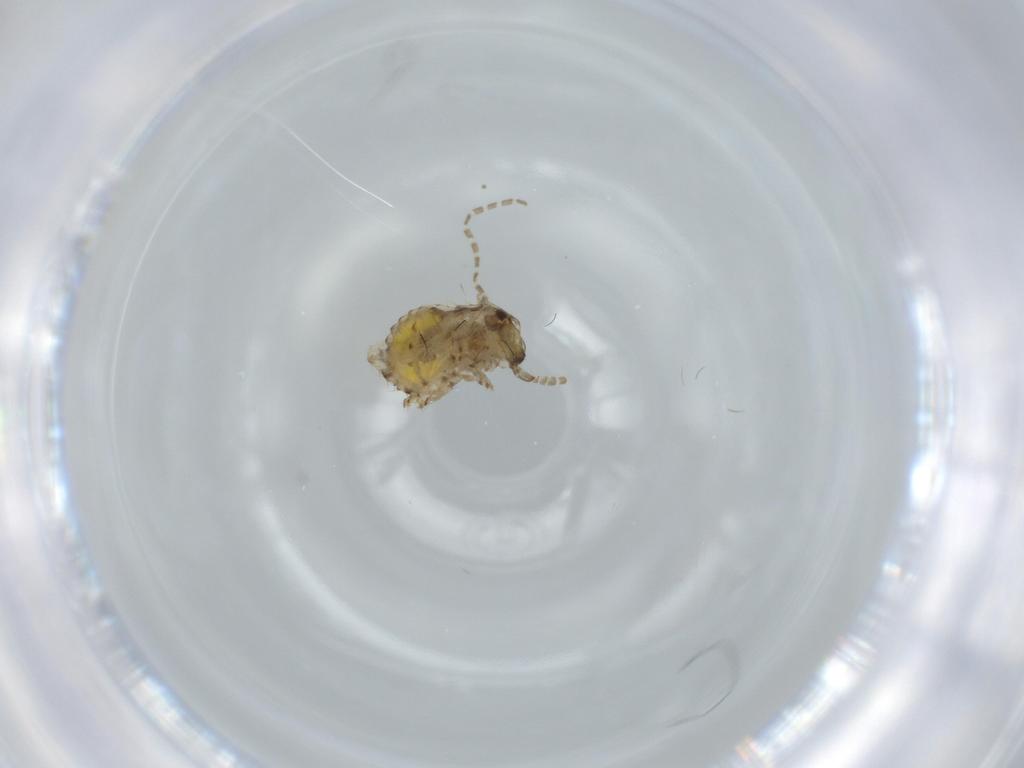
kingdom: Animalia
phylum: Arthropoda
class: Insecta
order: Blattodea
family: Ectobiidae
